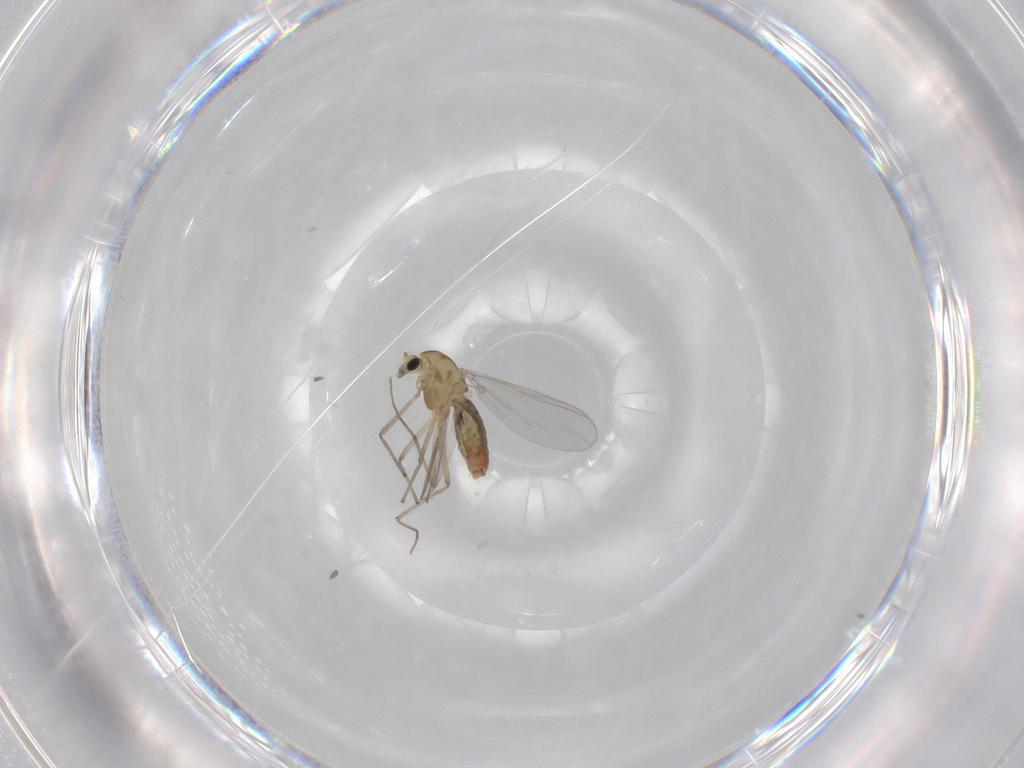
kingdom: Animalia
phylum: Arthropoda
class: Insecta
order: Diptera
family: Chironomidae
